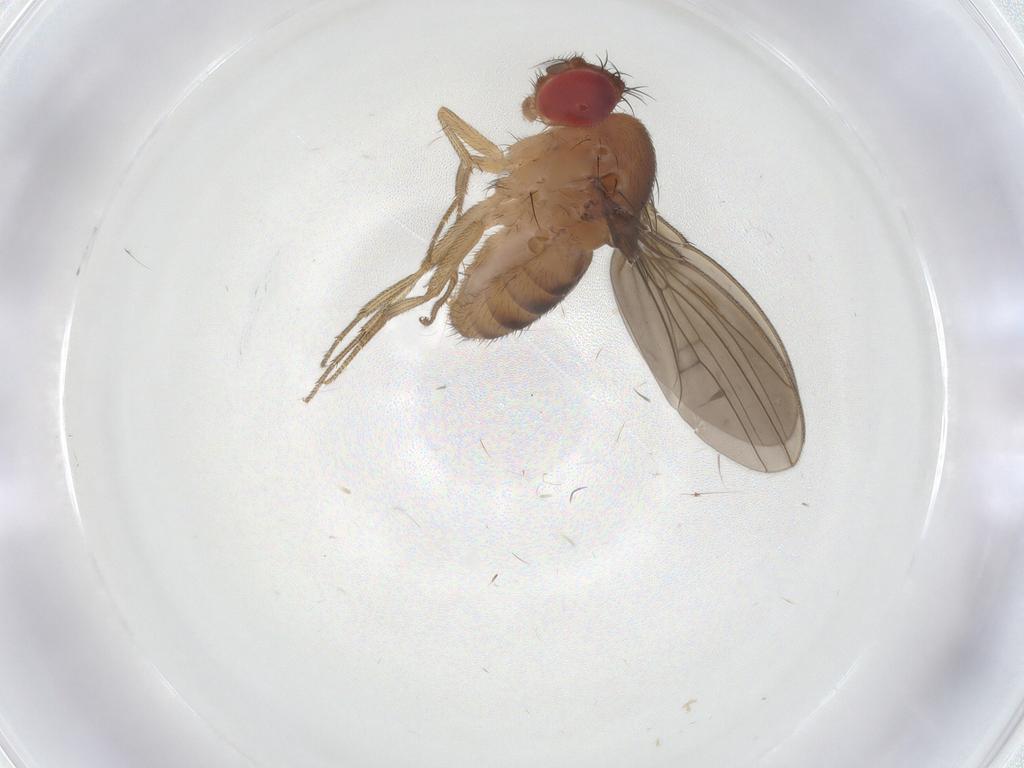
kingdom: Animalia
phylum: Arthropoda
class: Insecta
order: Diptera
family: Drosophilidae
